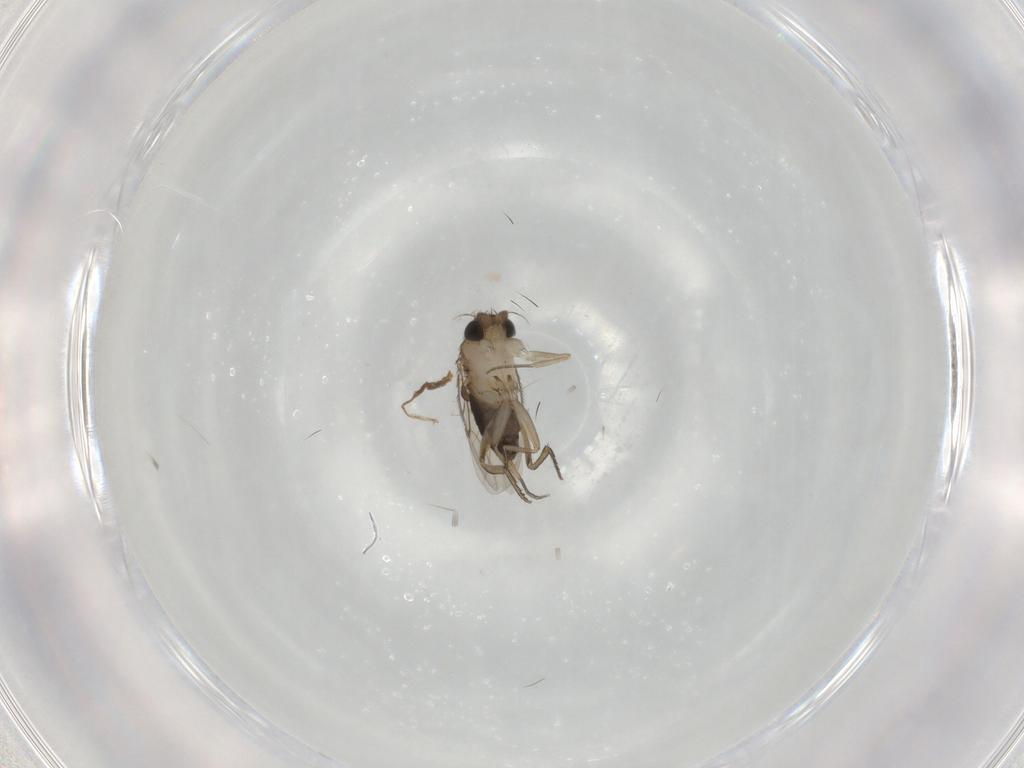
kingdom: Animalia
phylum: Arthropoda
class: Insecta
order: Diptera
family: Phoridae
